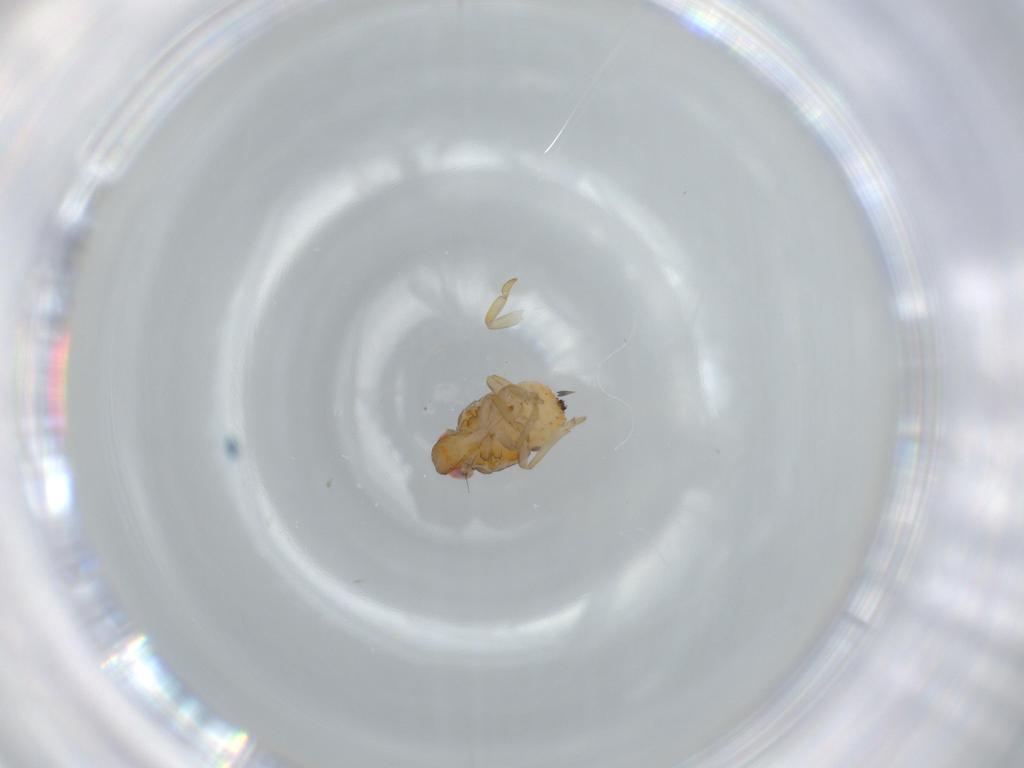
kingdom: Animalia
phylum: Arthropoda
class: Insecta
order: Hemiptera
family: Issidae
